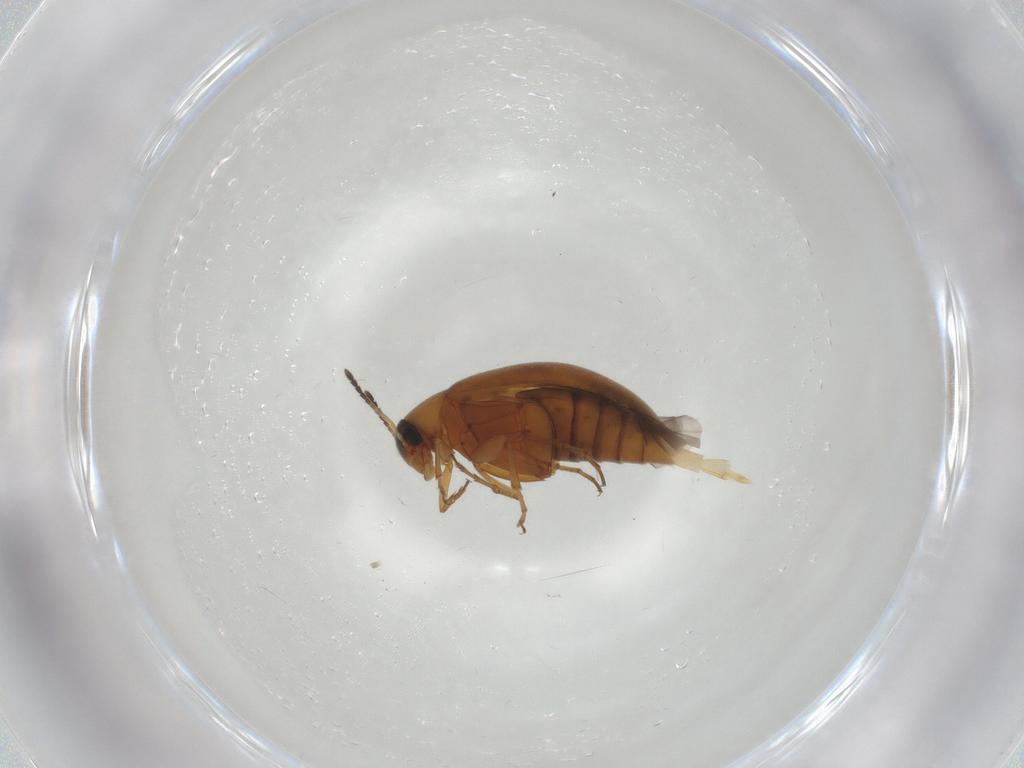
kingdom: Animalia
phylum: Arthropoda
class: Insecta
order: Coleoptera
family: Scraptiidae
